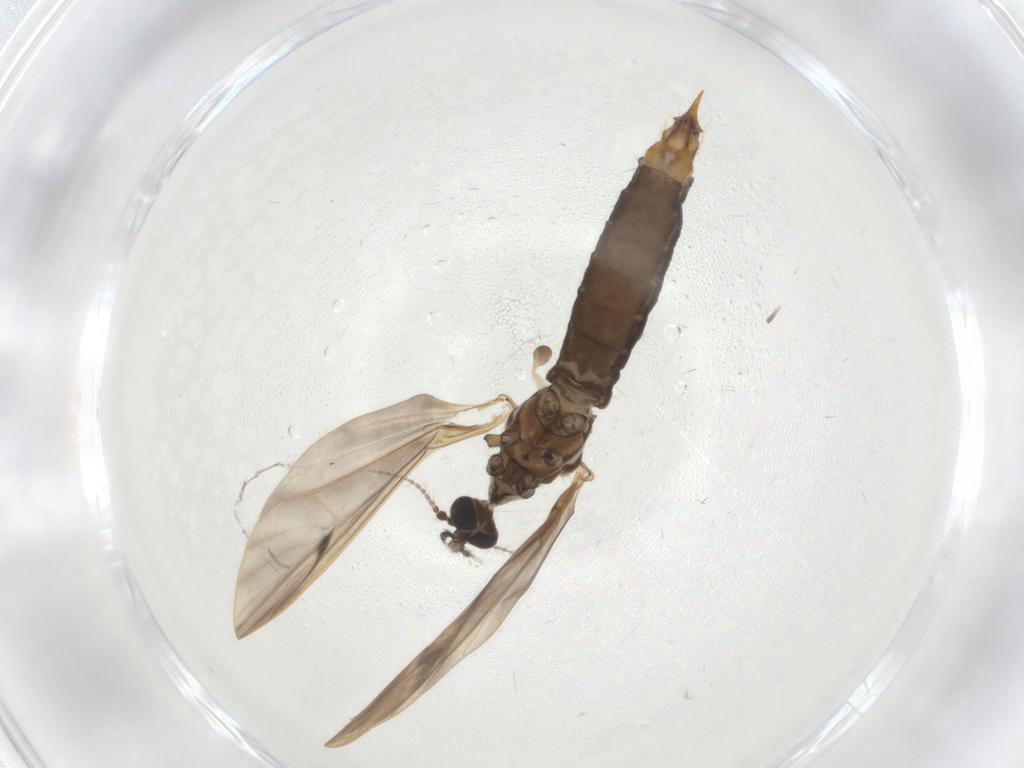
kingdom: Animalia
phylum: Arthropoda
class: Insecta
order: Diptera
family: Limoniidae
